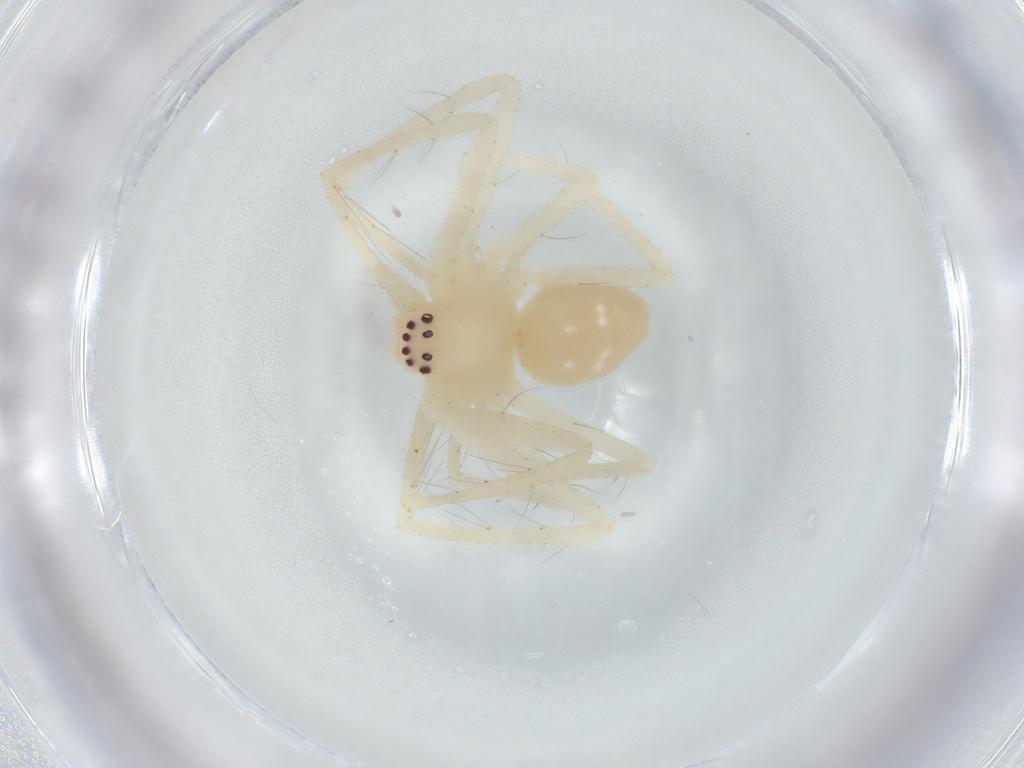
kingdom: Animalia
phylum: Arthropoda
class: Arachnida
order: Araneae
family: Sparassidae
